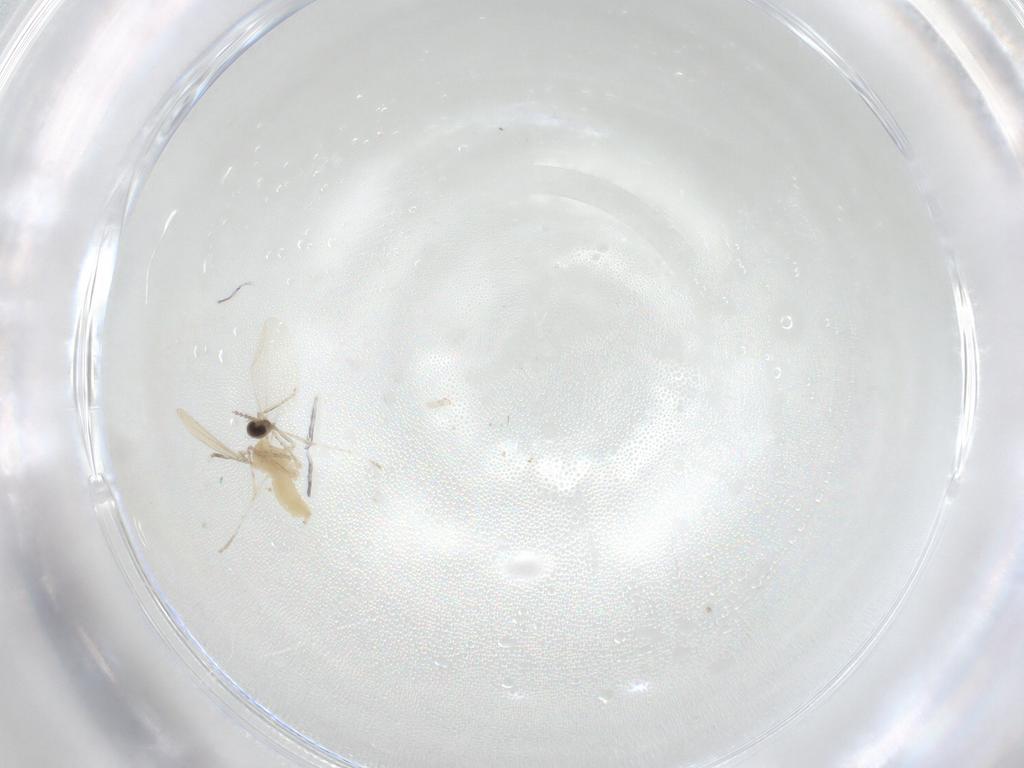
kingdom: Animalia
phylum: Arthropoda
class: Insecta
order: Diptera
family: Cecidomyiidae
